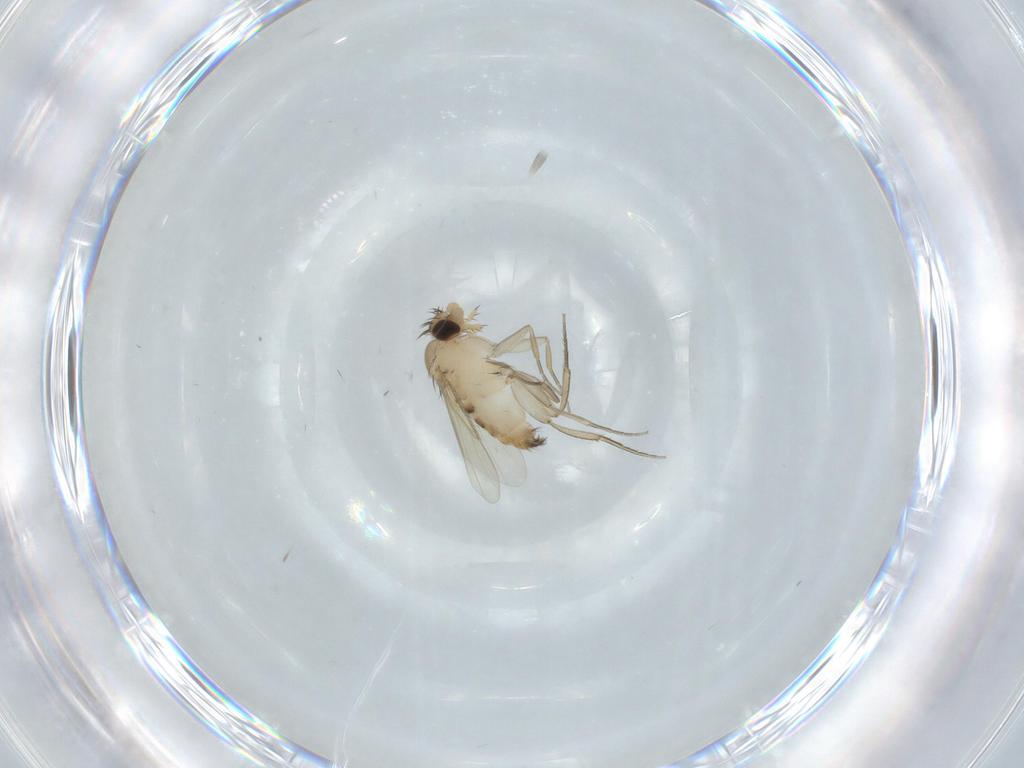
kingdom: Animalia
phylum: Arthropoda
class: Insecta
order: Diptera
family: Phoridae
